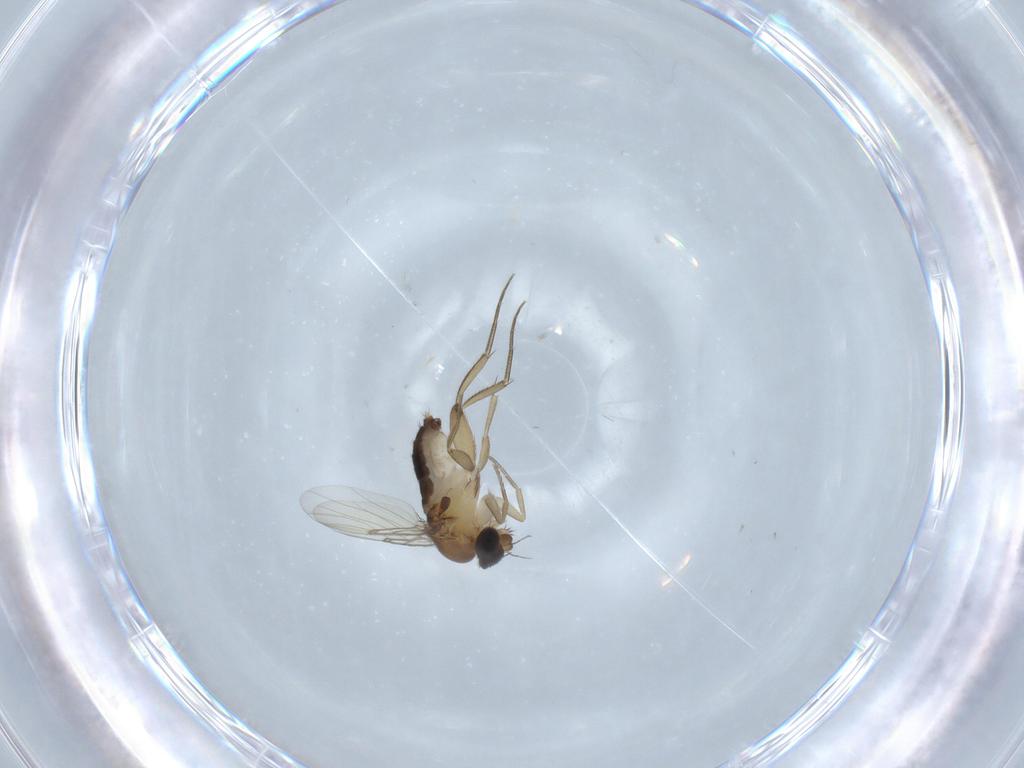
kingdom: Animalia
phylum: Arthropoda
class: Insecta
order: Diptera
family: Phoridae
